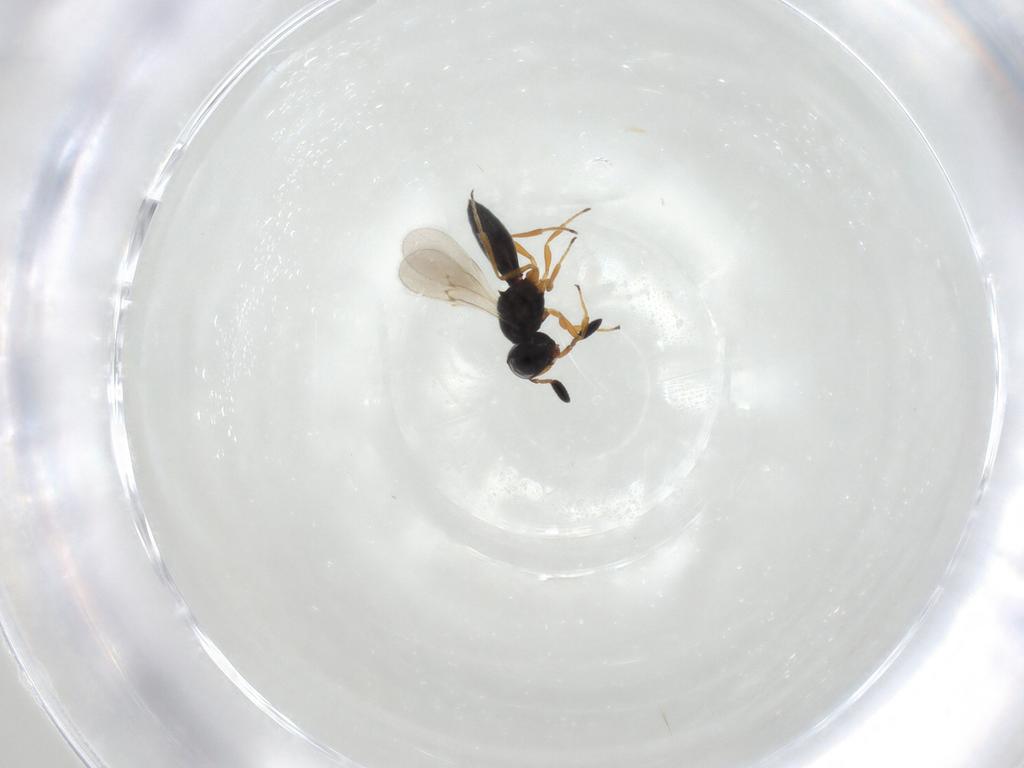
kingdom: Animalia
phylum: Arthropoda
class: Insecta
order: Hymenoptera
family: Scelionidae
